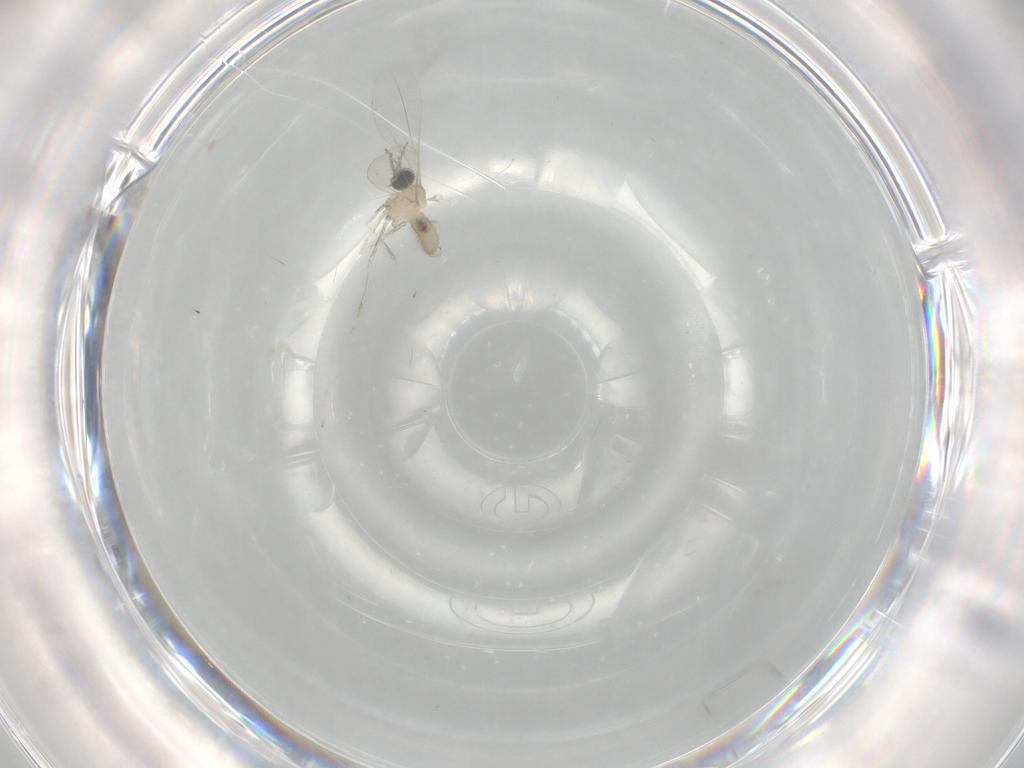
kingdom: Animalia
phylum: Arthropoda
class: Insecta
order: Diptera
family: Cecidomyiidae
